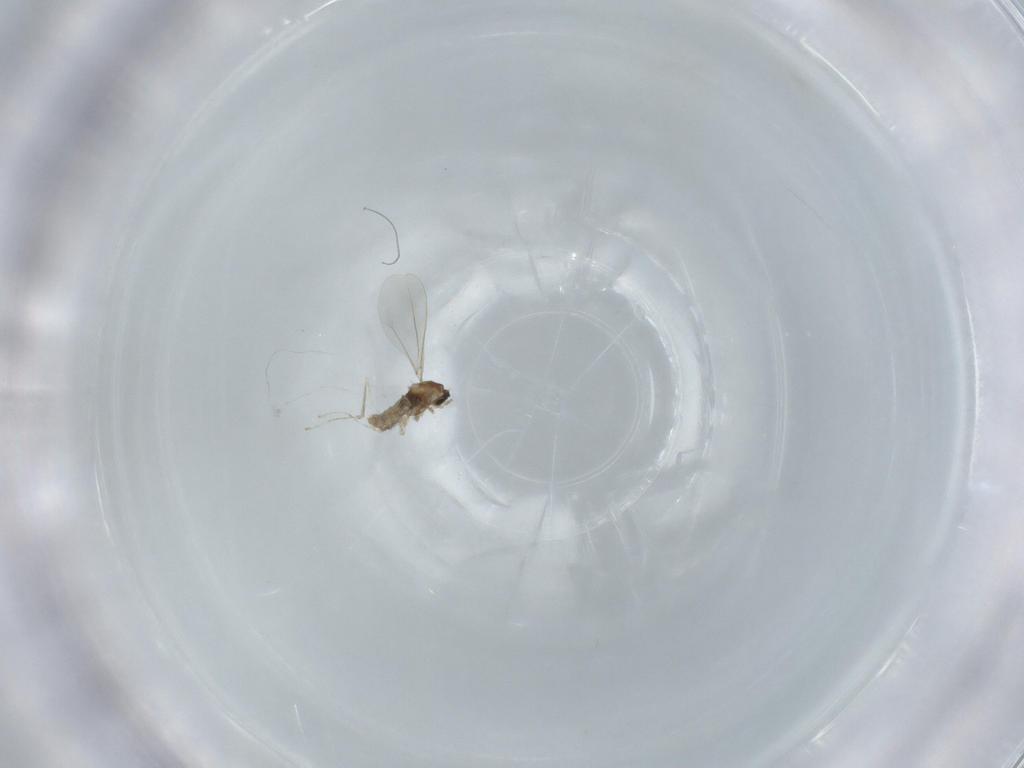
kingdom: Animalia
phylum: Arthropoda
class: Insecta
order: Diptera
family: Cecidomyiidae
